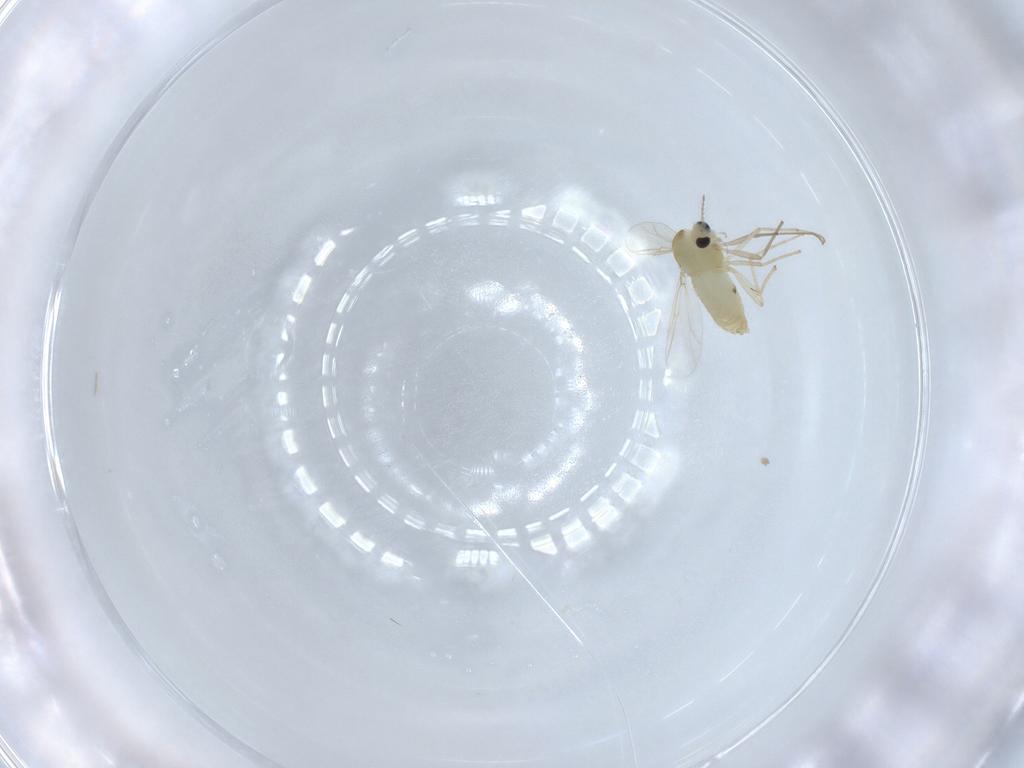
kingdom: Animalia
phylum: Arthropoda
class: Insecta
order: Diptera
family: Chironomidae
